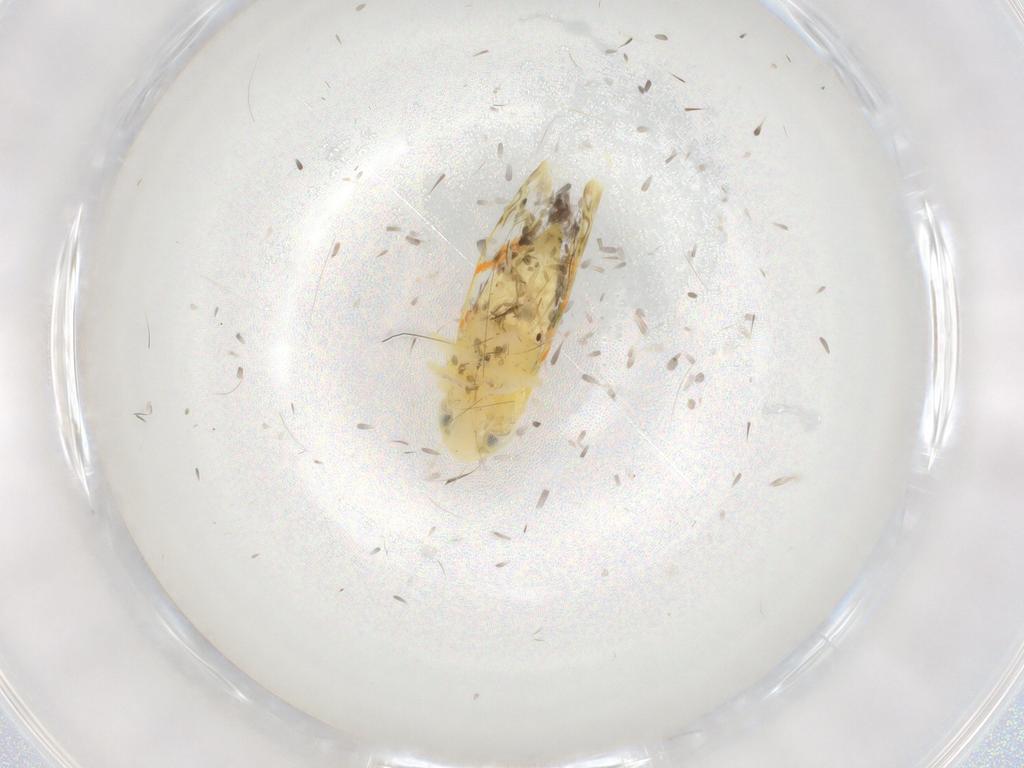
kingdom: Animalia
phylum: Arthropoda
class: Insecta
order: Hemiptera
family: Cicadellidae
